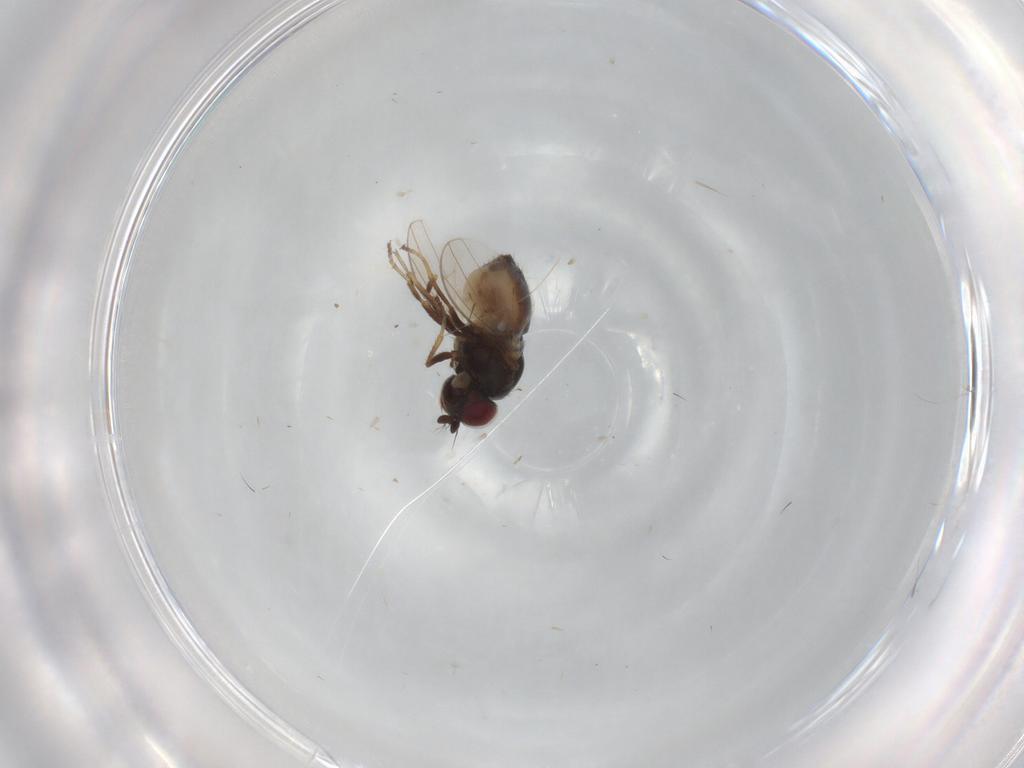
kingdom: Animalia
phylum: Arthropoda
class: Insecta
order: Diptera
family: Ephydridae
